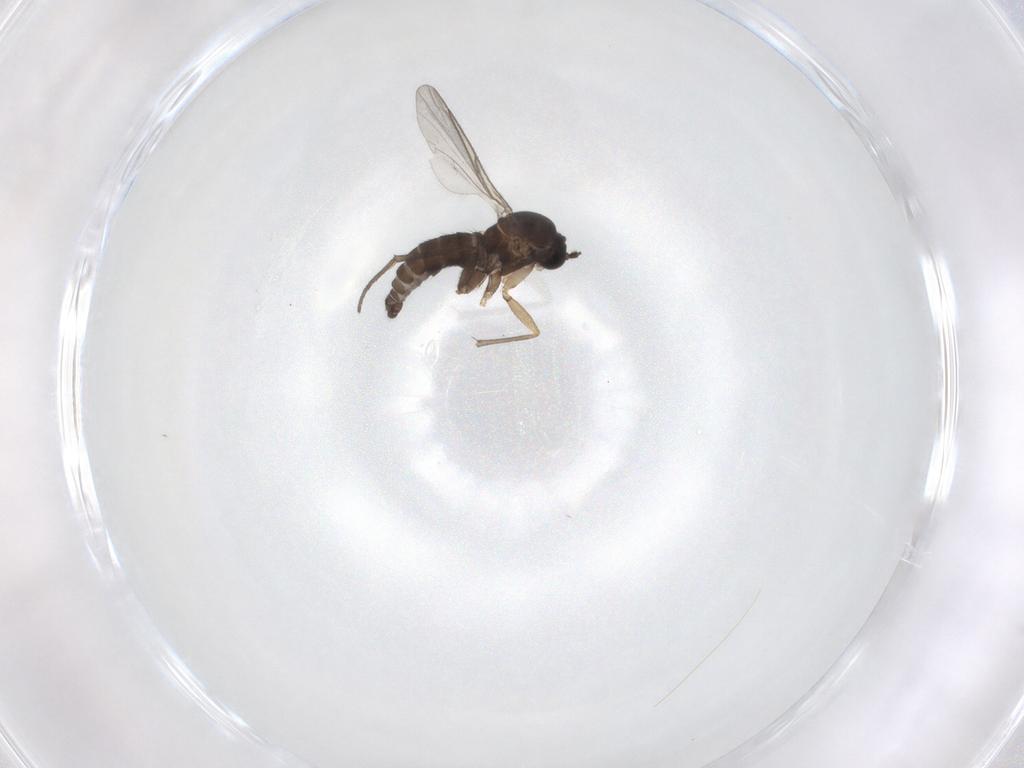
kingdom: Animalia
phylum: Arthropoda
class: Insecta
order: Diptera
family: Sciaridae
